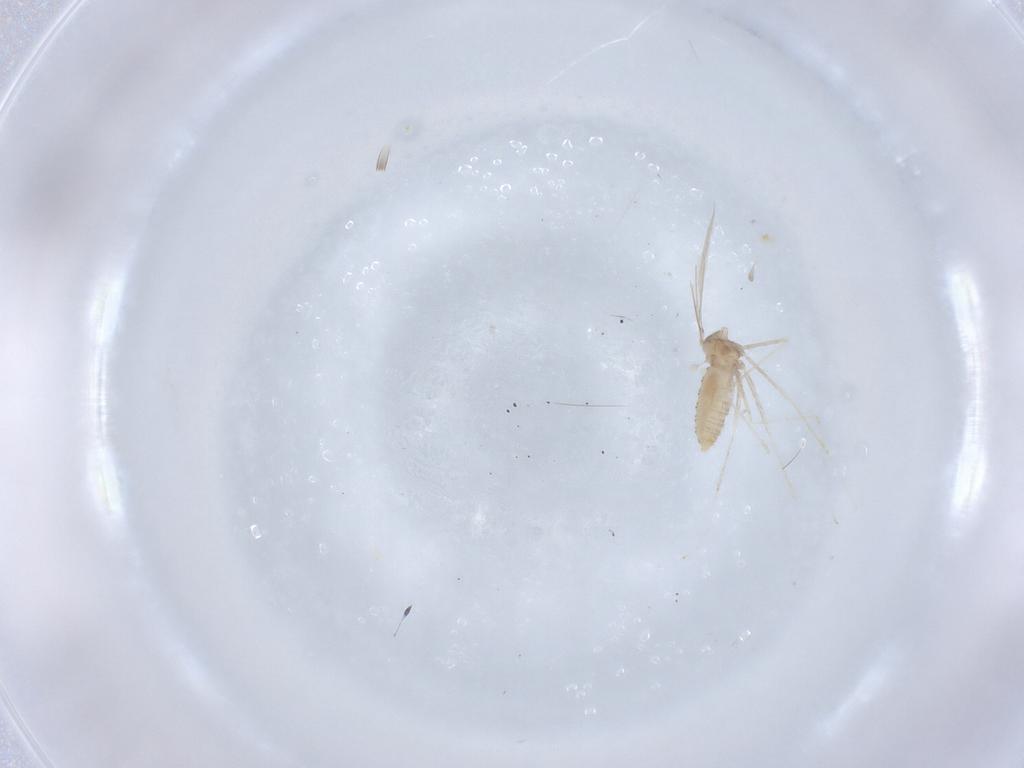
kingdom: Animalia
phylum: Arthropoda
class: Insecta
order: Diptera
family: Cecidomyiidae
